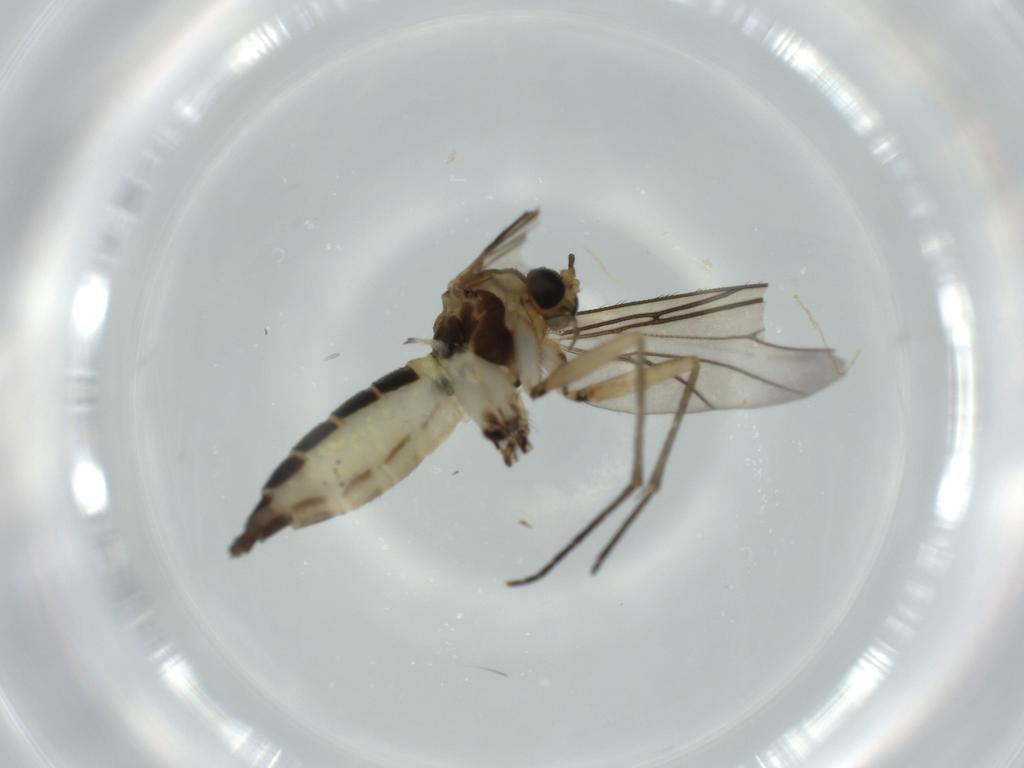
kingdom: Animalia
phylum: Arthropoda
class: Insecta
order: Diptera
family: Sciaridae
